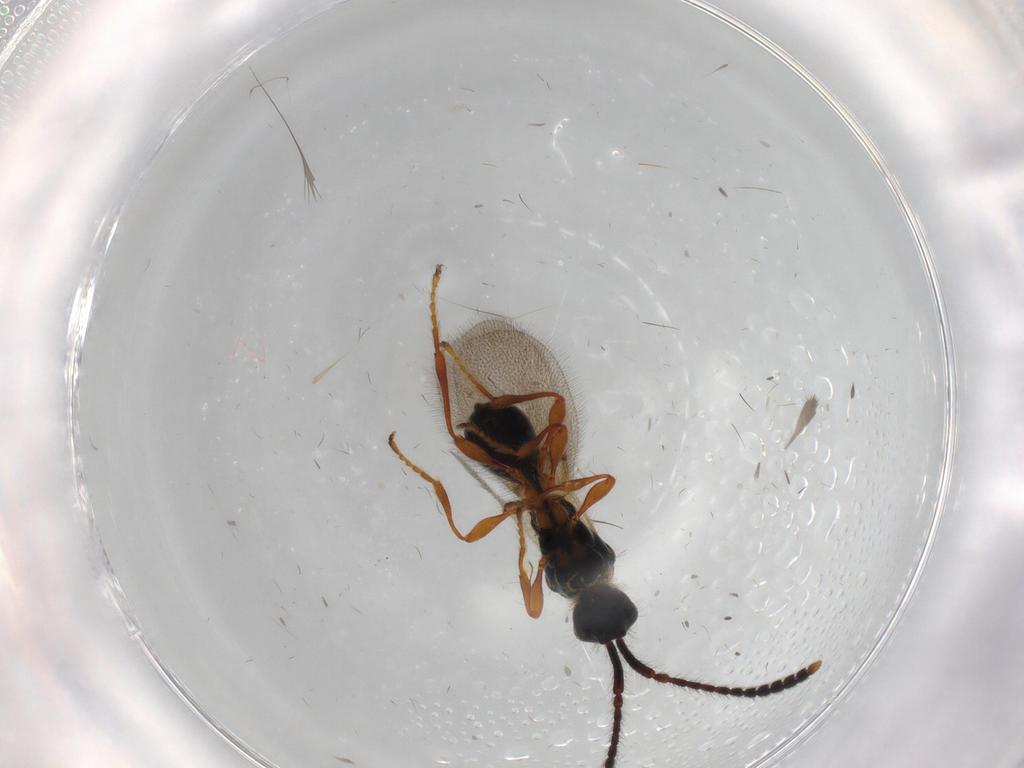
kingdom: Animalia
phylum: Arthropoda
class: Insecta
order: Hymenoptera
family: Diapriidae
